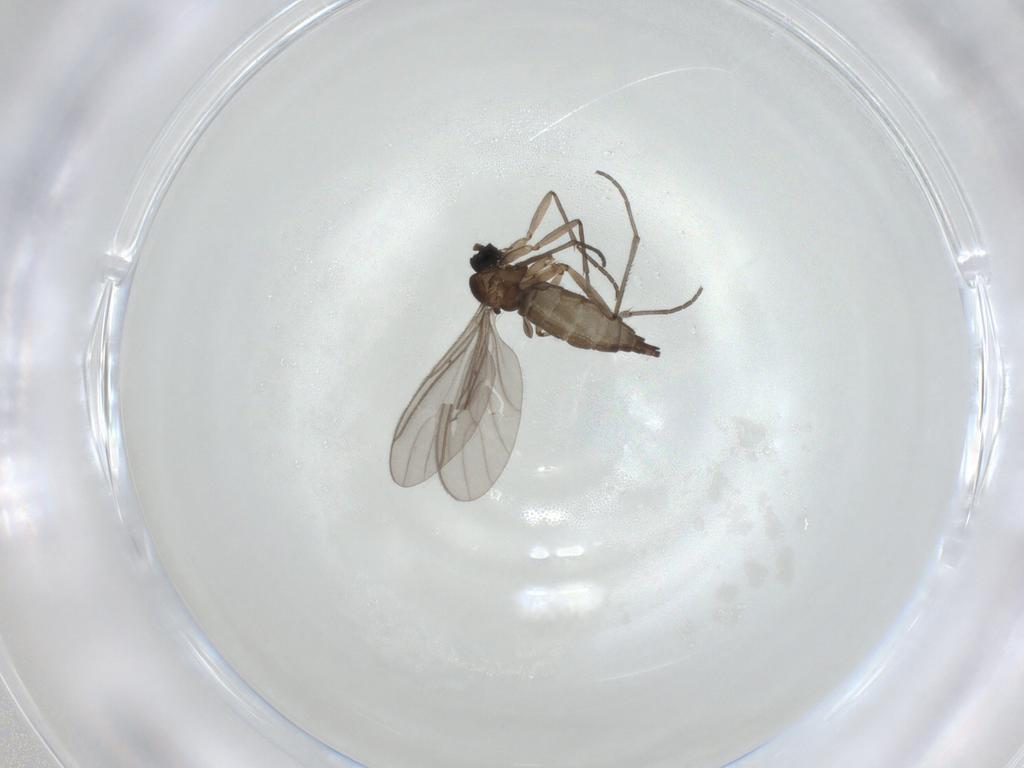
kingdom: Animalia
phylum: Arthropoda
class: Insecta
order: Diptera
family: Sciaridae
